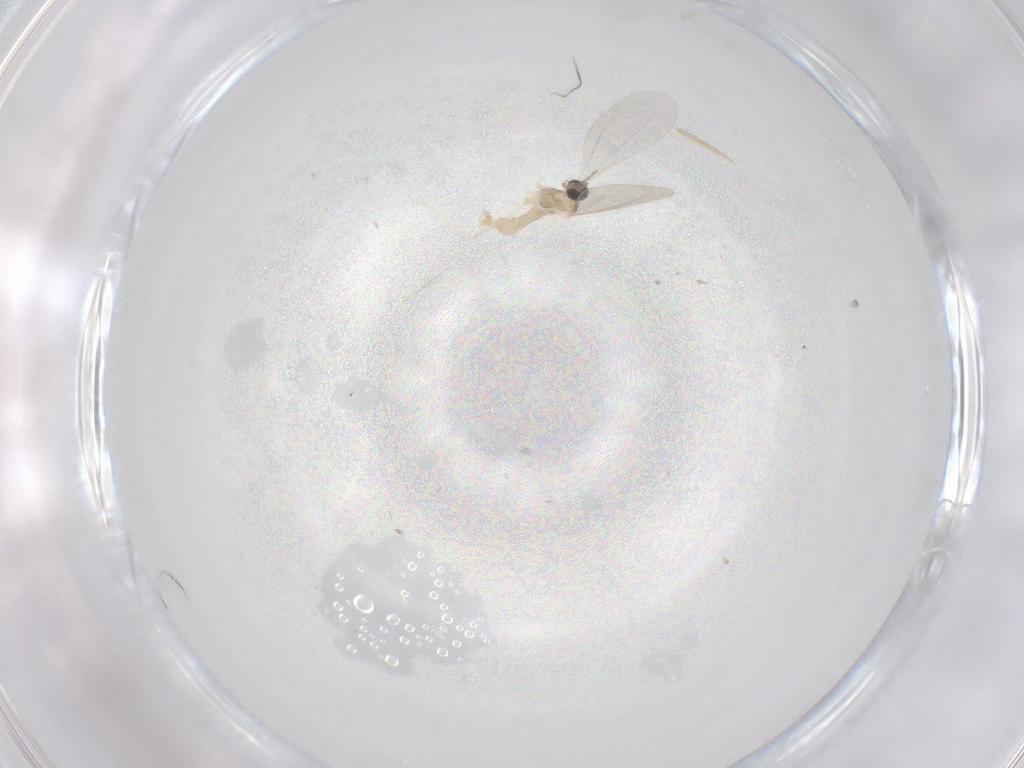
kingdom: Animalia
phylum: Arthropoda
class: Insecta
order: Diptera
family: Cecidomyiidae
